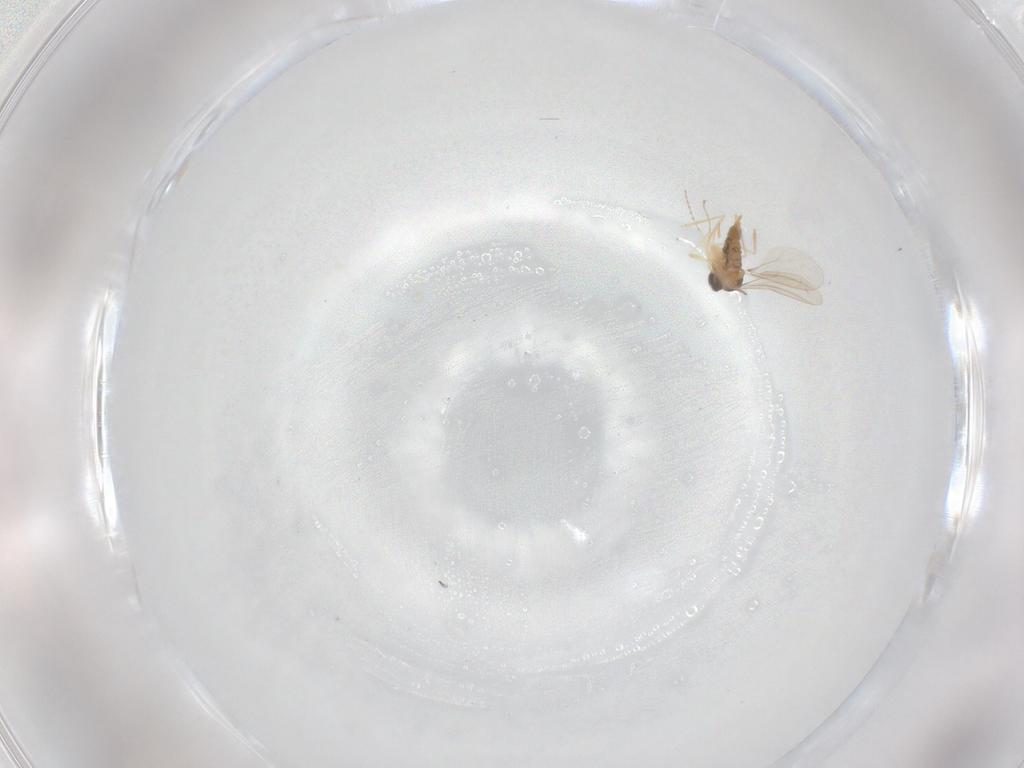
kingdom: Animalia
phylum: Arthropoda
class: Insecta
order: Diptera
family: Cecidomyiidae
